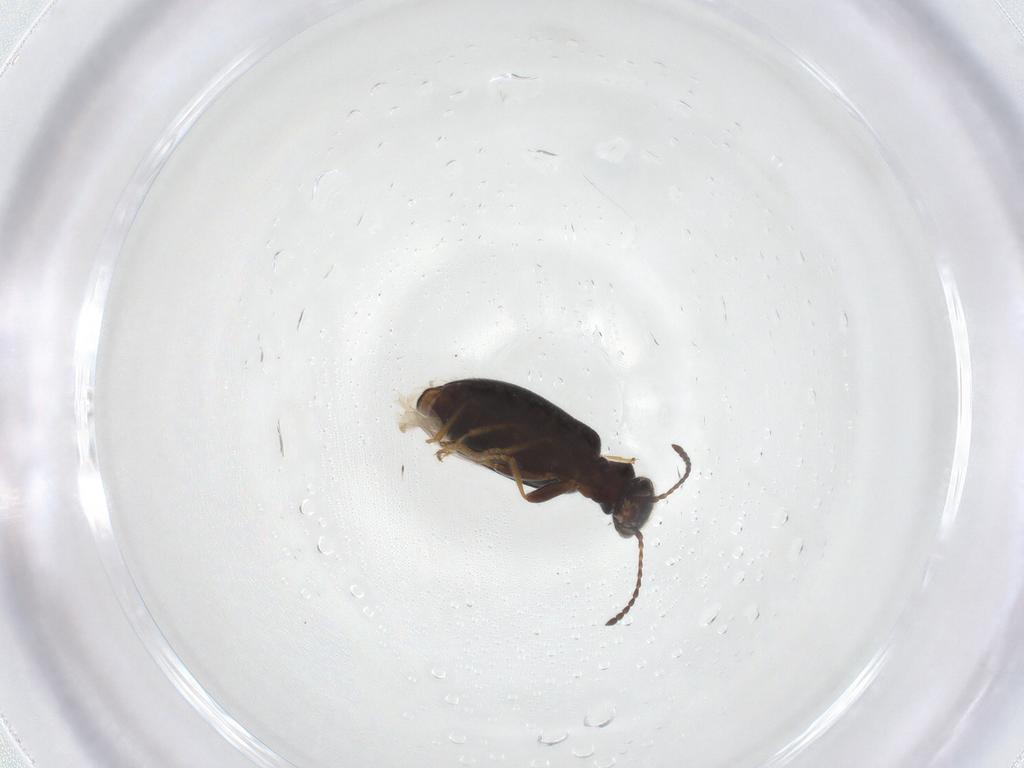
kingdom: Animalia
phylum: Arthropoda
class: Insecta
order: Coleoptera
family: Anthicidae
